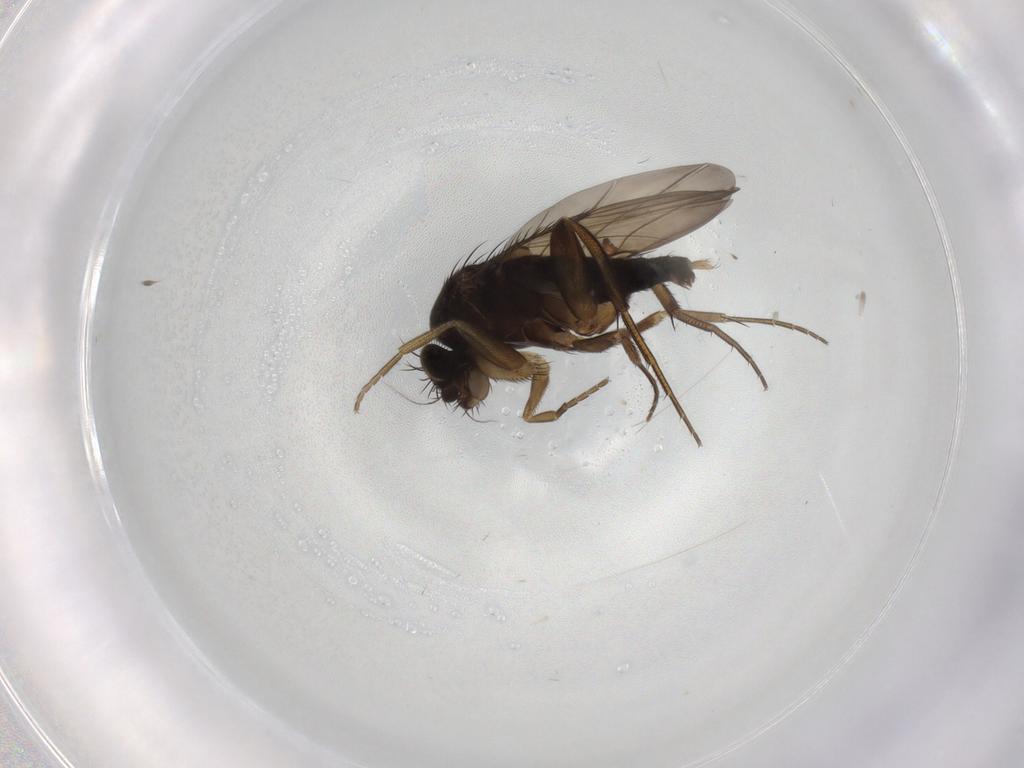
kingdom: Animalia
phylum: Arthropoda
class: Insecta
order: Diptera
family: Phoridae
